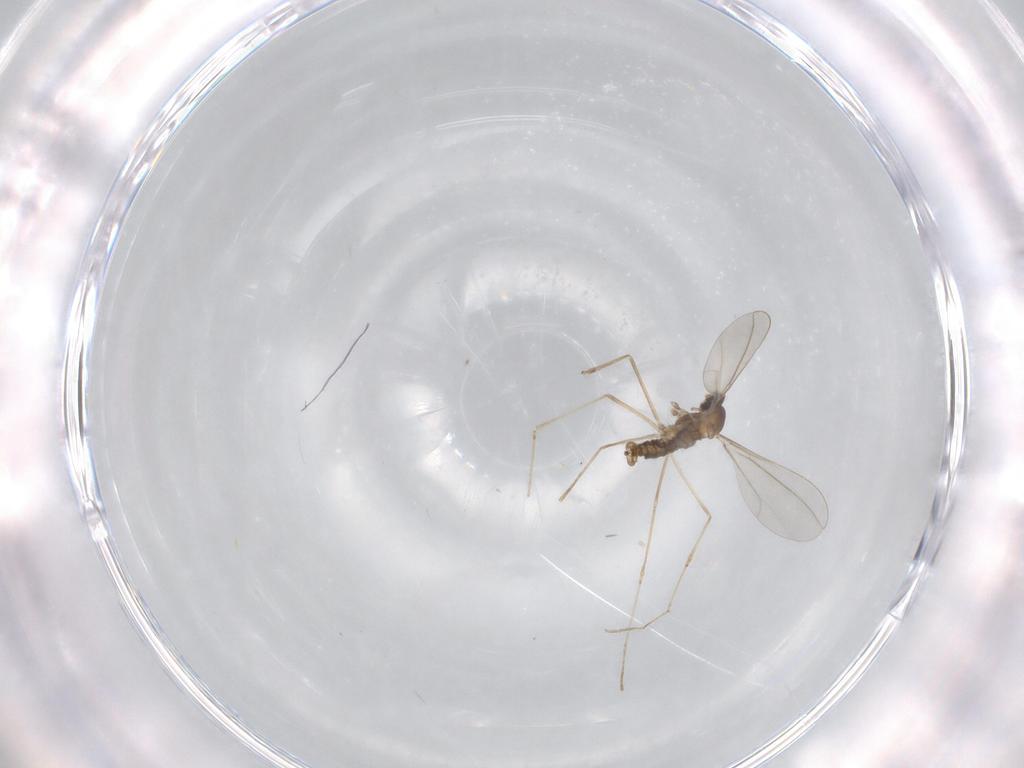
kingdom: Animalia
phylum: Arthropoda
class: Insecta
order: Diptera
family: Cecidomyiidae
